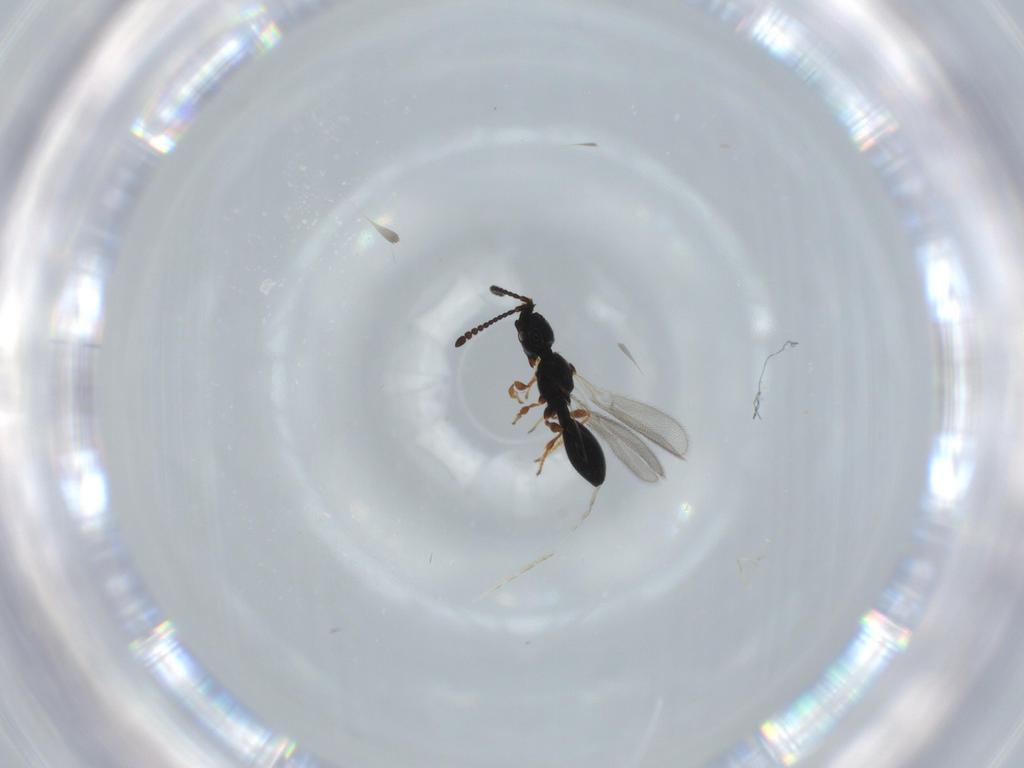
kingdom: Animalia
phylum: Arthropoda
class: Insecta
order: Hymenoptera
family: Diapriidae
